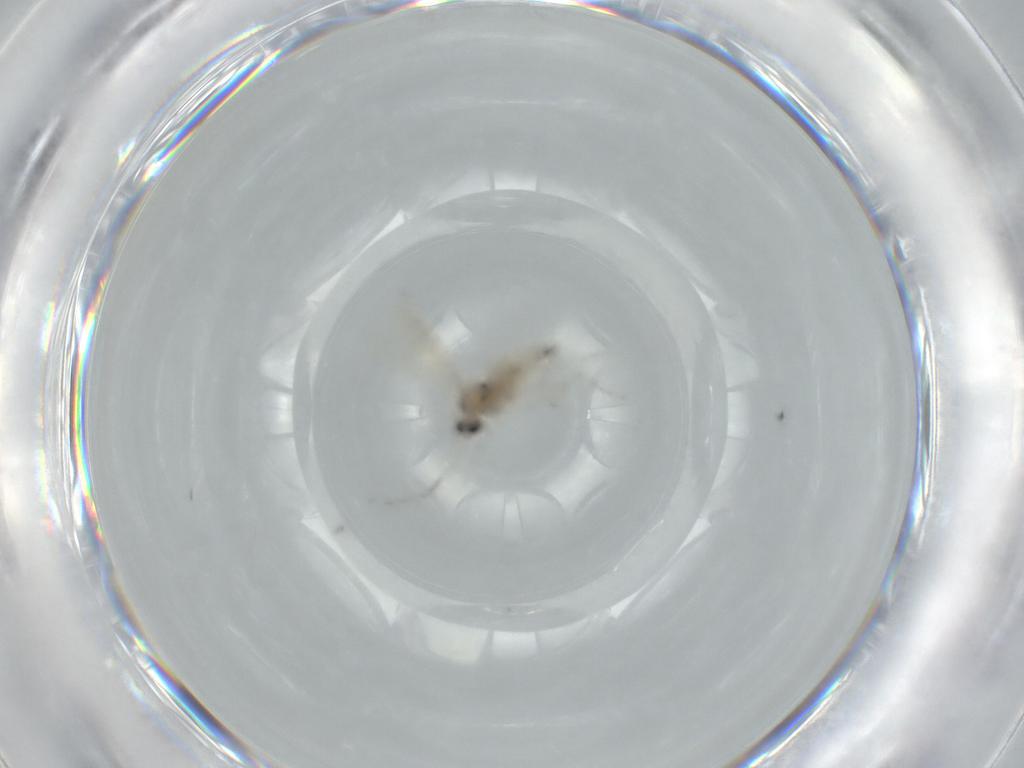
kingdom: Animalia
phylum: Arthropoda
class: Insecta
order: Diptera
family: Cecidomyiidae
